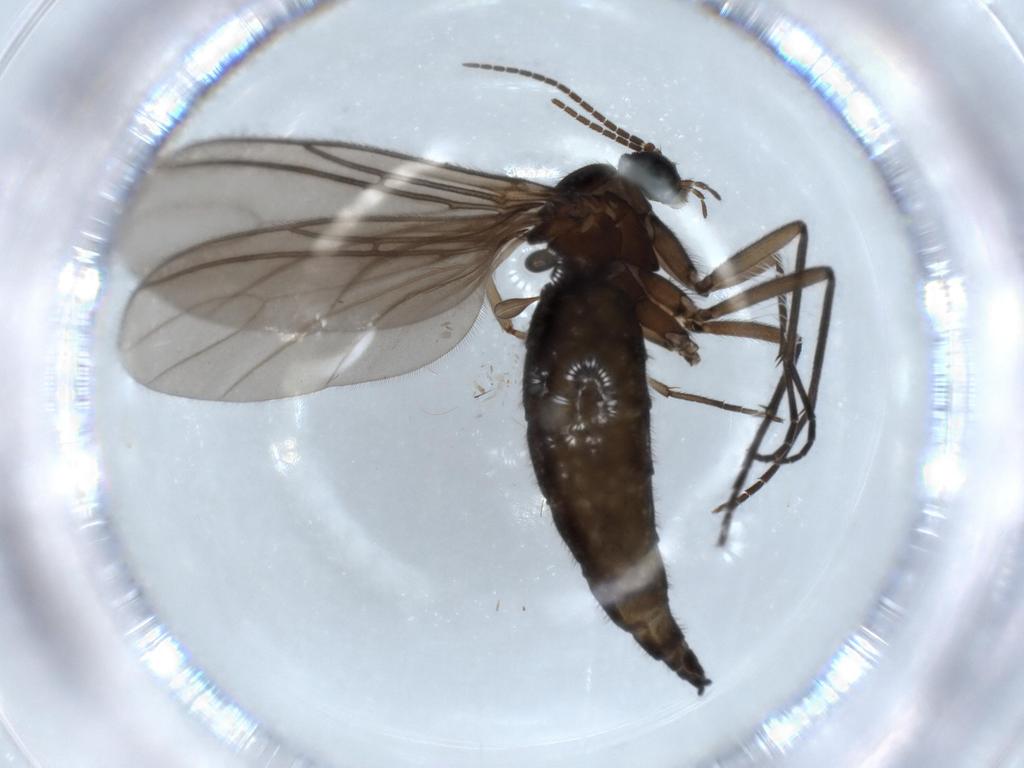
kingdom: Animalia
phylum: Arthropoda
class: Insecta
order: Diptera
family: Sciaridae
